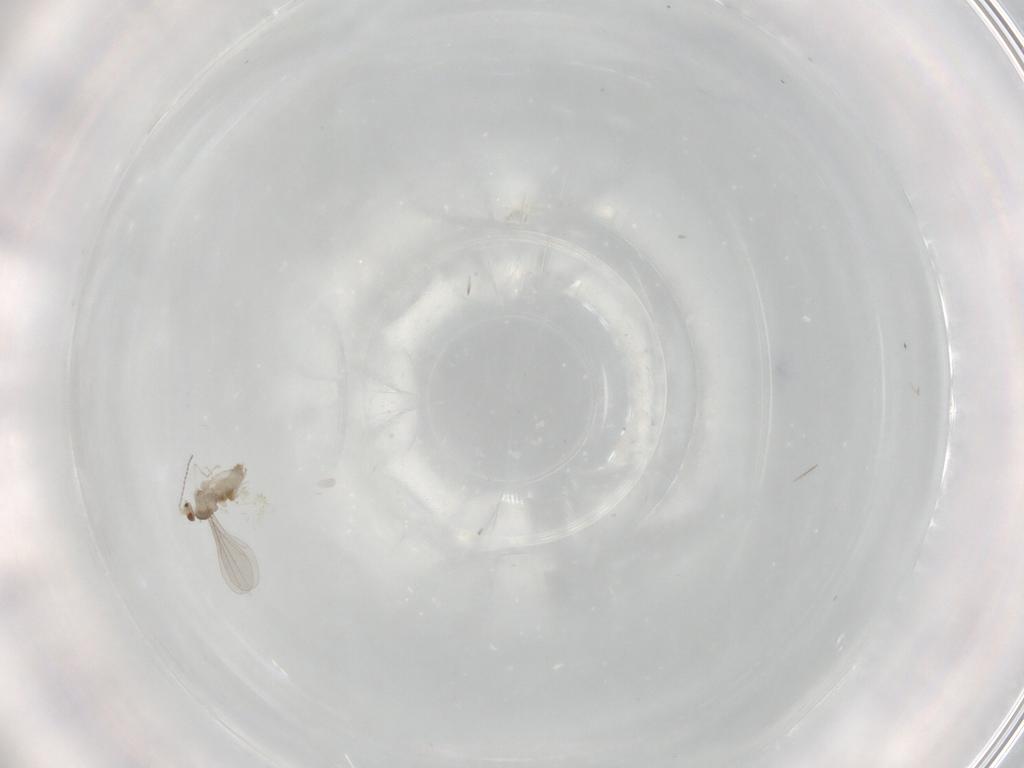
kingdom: Animalia
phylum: Arthropoda
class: Insecta
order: Diptera
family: Cecidomyiidae
